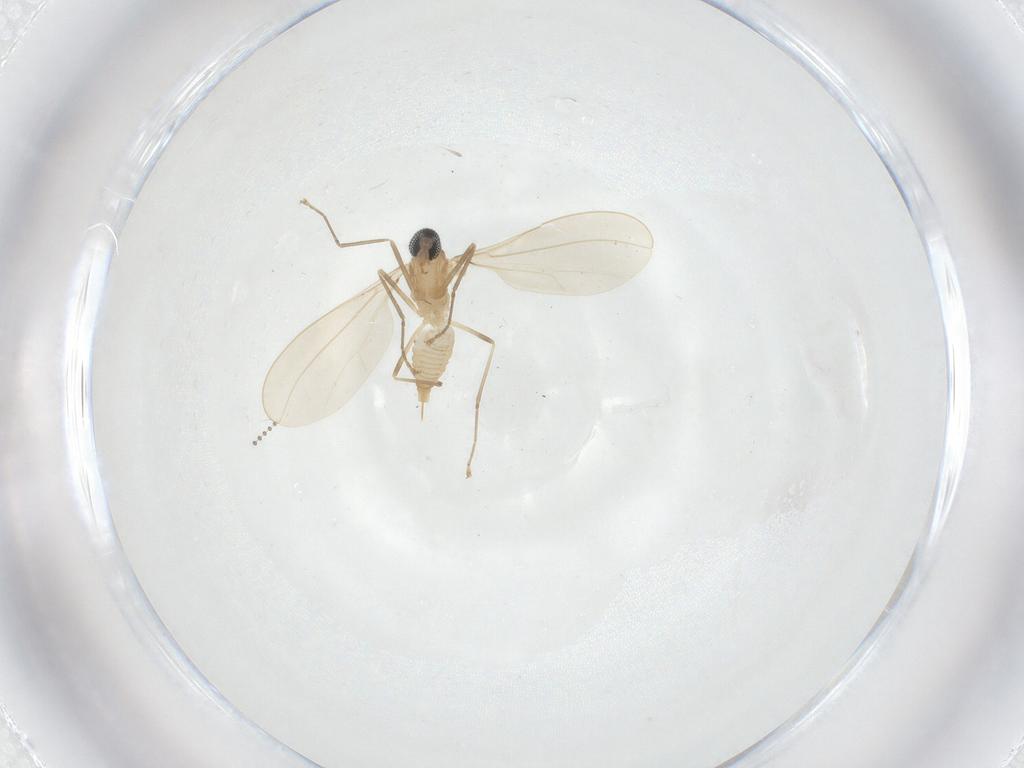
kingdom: Animalia
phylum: Arthropoda
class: Insecta
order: Diptera
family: Cecidomyiidae
